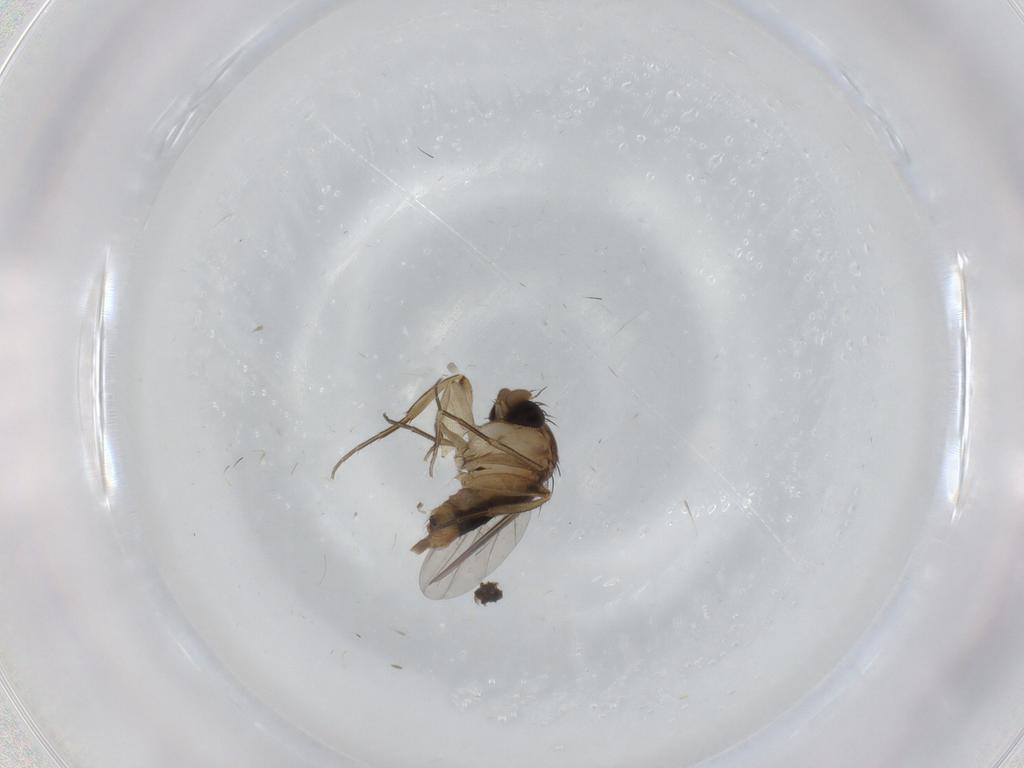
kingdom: Animalia
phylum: Arthropoda
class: Insecta
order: Diptera
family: Phoridae
